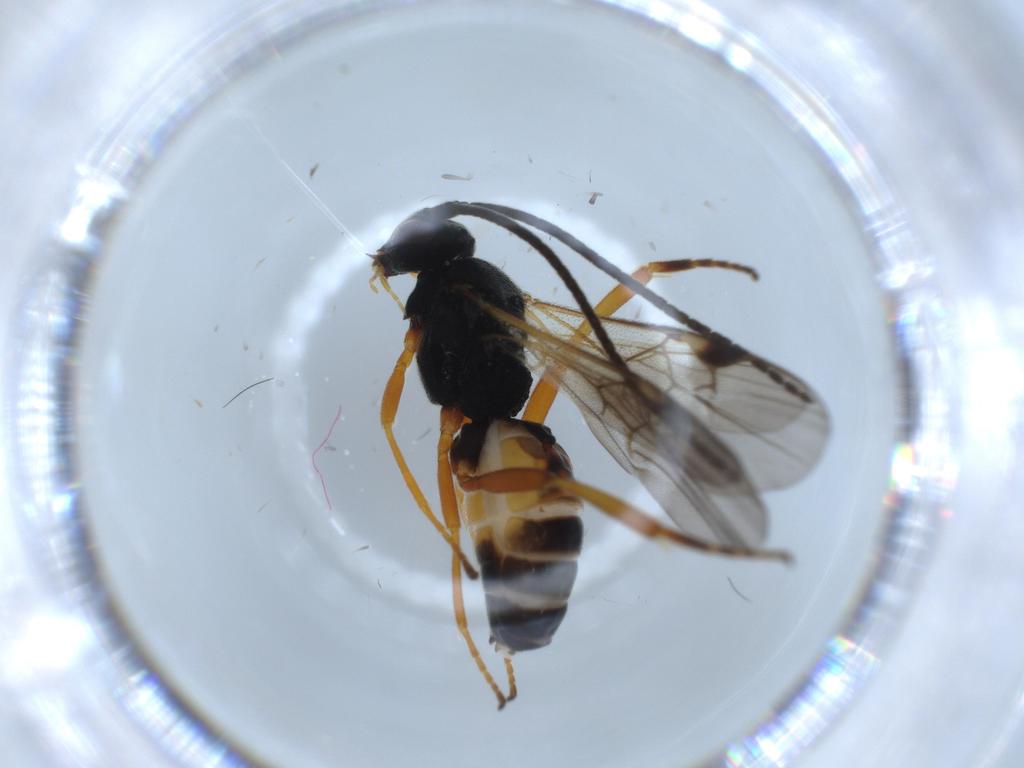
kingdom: Animalia
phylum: Arthropoda
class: Insecta
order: Hymenoptera
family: Braconidae
